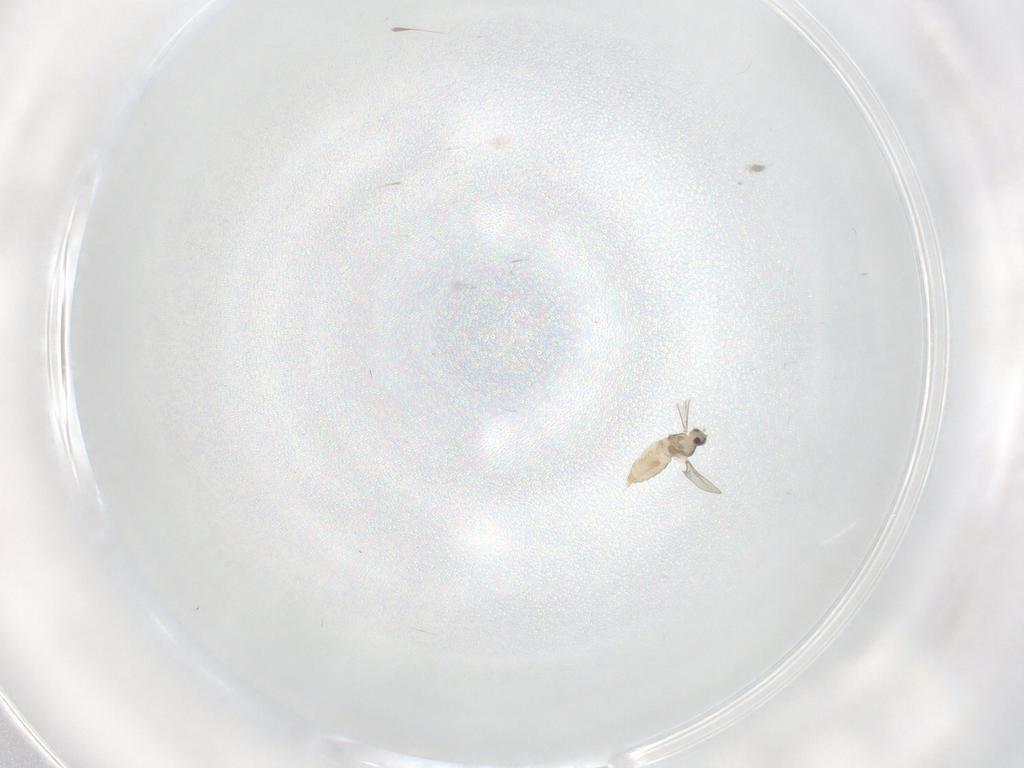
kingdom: Animalia
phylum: Arthropoda
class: Insecta
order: Diptera
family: Cecidomyiidae
